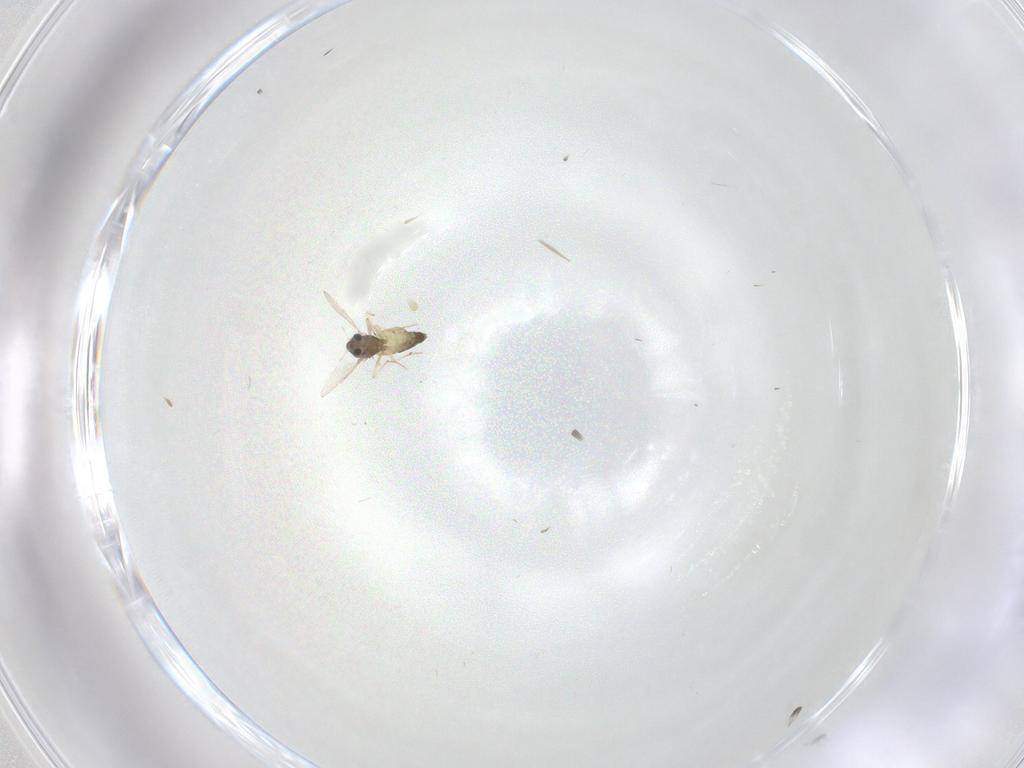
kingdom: Animalia
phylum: Arthropoda
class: Insecta
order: Diptera
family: Chironomidae
